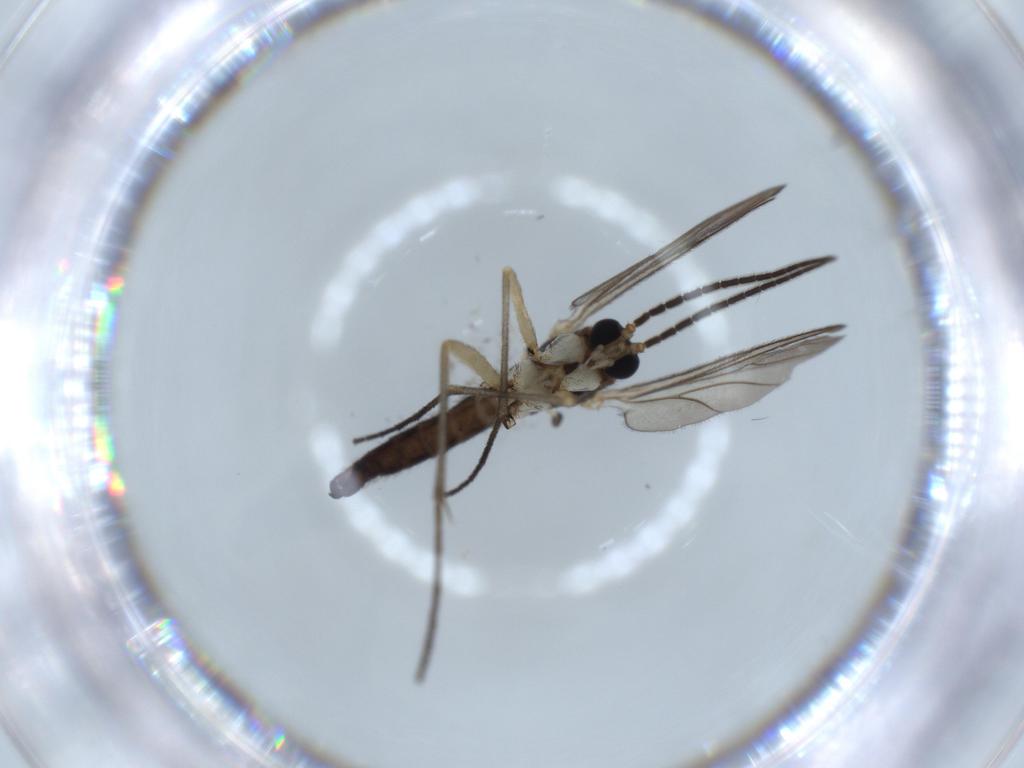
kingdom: Animalia
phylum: Arthropoda
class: Insecta
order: Diptera
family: Sciaridae
